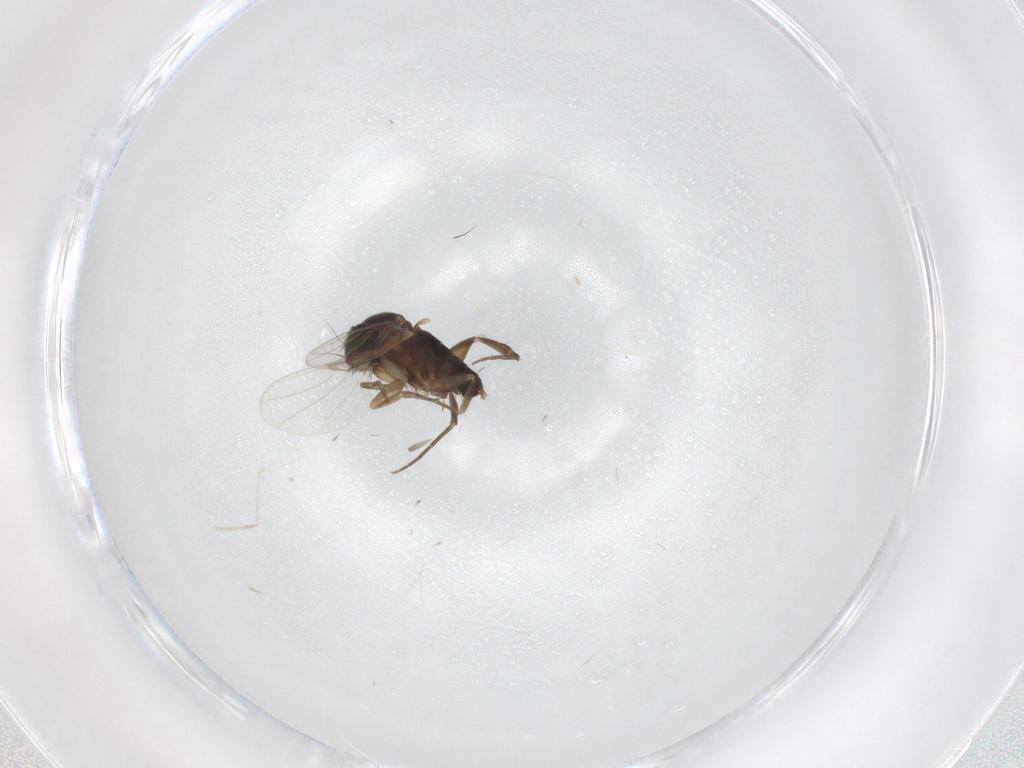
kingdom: Animalia
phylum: Arthropoda
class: Insecta
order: Diptera
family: Phoridae
